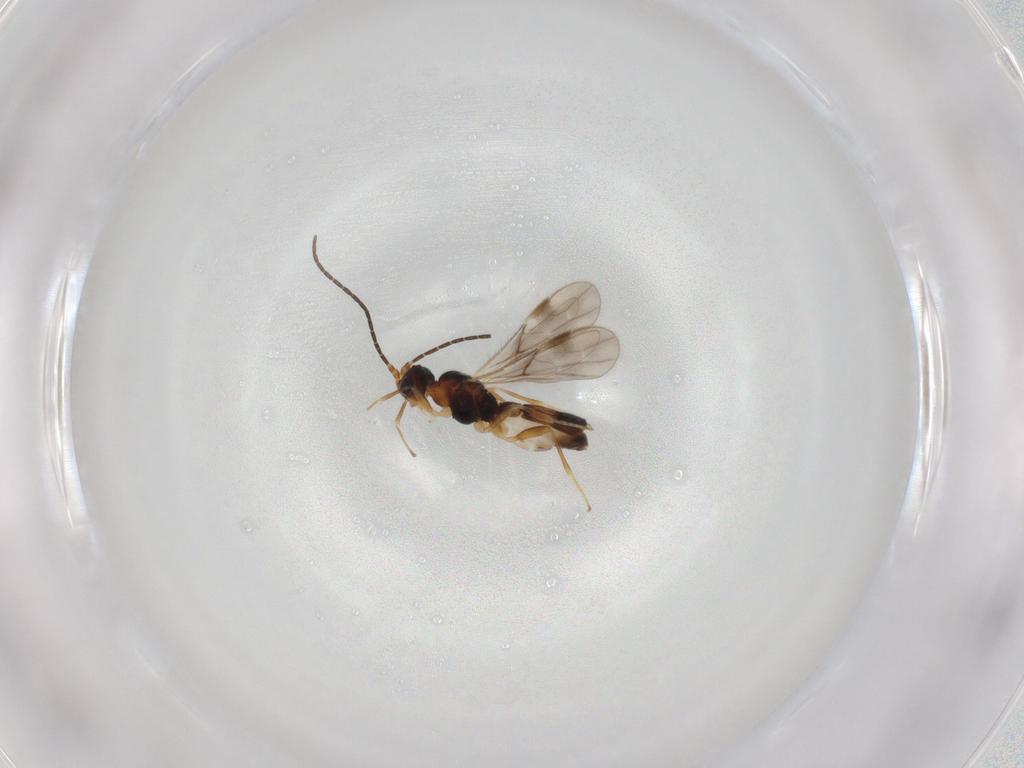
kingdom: Animalia
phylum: Arthropoda
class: Insecta
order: Hymenoptera
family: Braconidae
